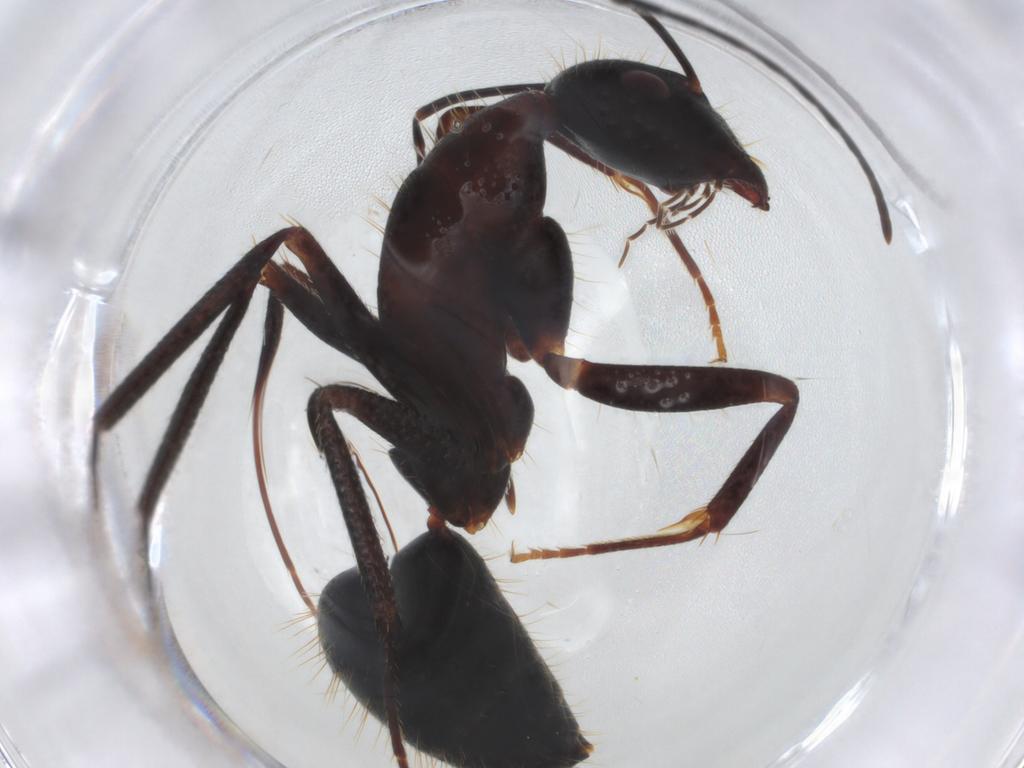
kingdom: Animalia
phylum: Arthropoda
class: Insecta
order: Hymenoptera
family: Formicidae
